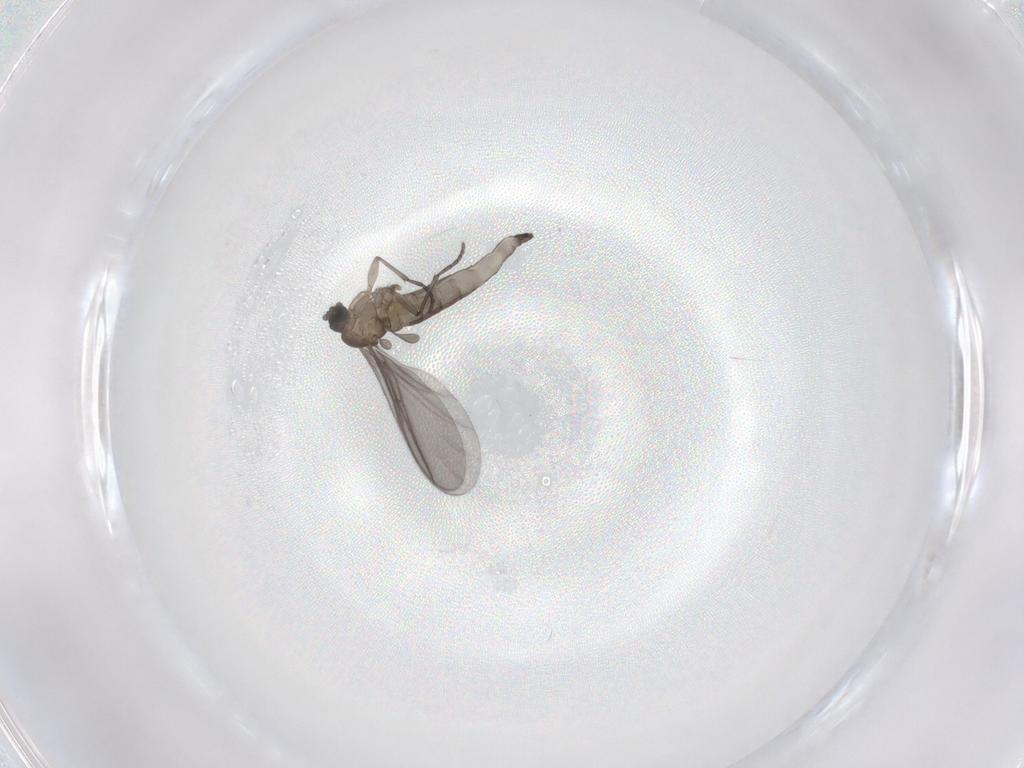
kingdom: Animalia
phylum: Arthropoda
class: Insecta
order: Diptera
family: Sciaridae
